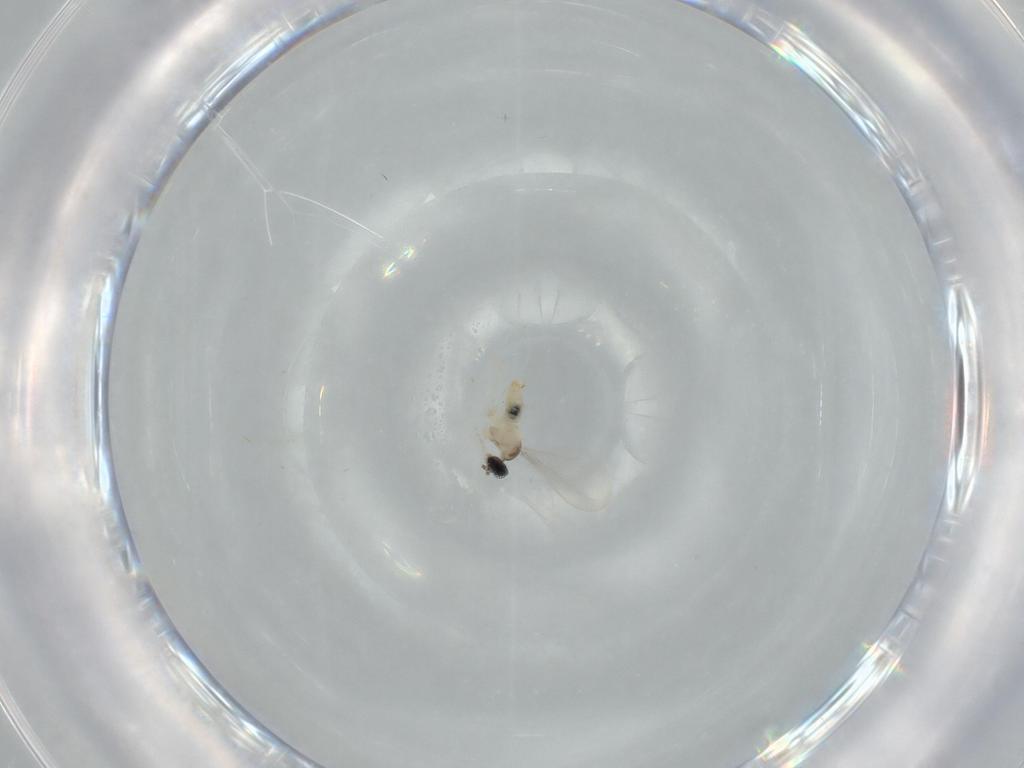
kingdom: Animalia
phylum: Arthropoda
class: Insecta
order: Diptera
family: Cecidomyiidae
